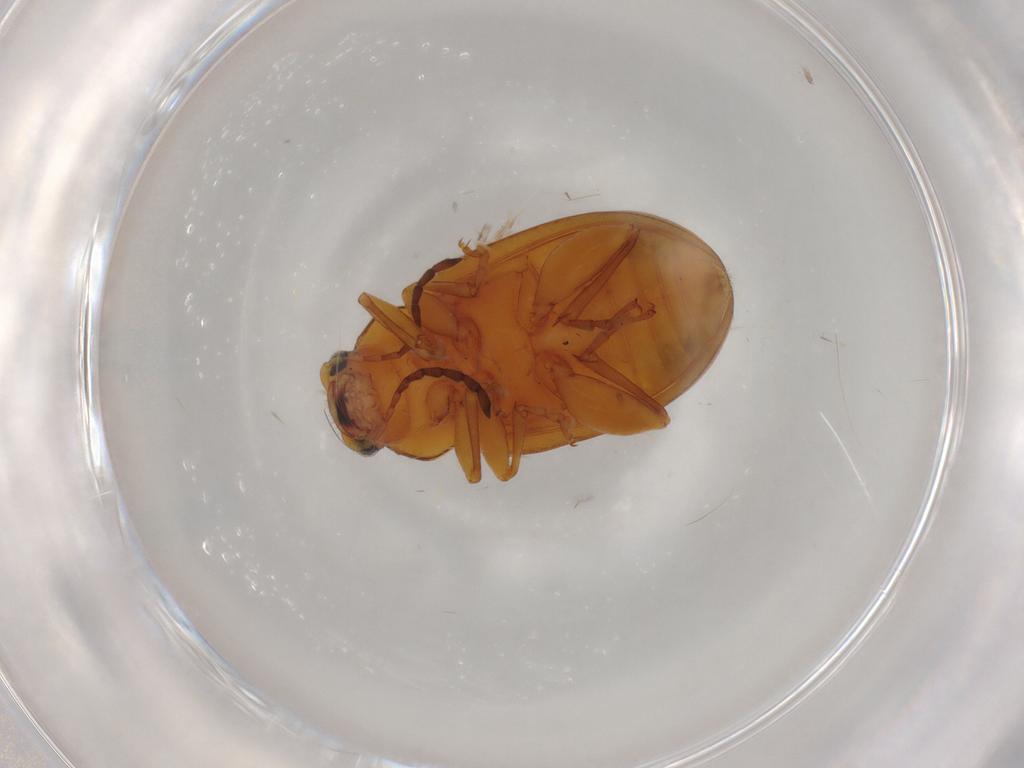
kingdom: Animalia
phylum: Arthropoda
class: Insecta
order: Coleoptera
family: Chrysomelidae
